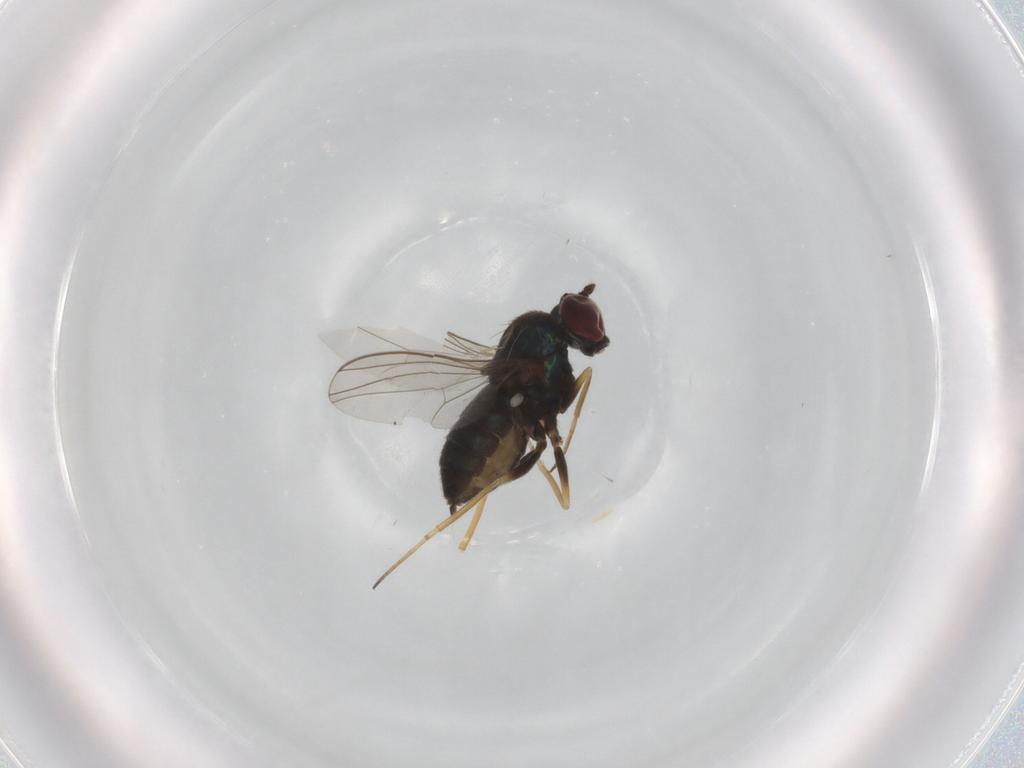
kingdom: Animalia
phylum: Arthropoda
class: Insecta
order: Diptera
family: Dolichopodidae
